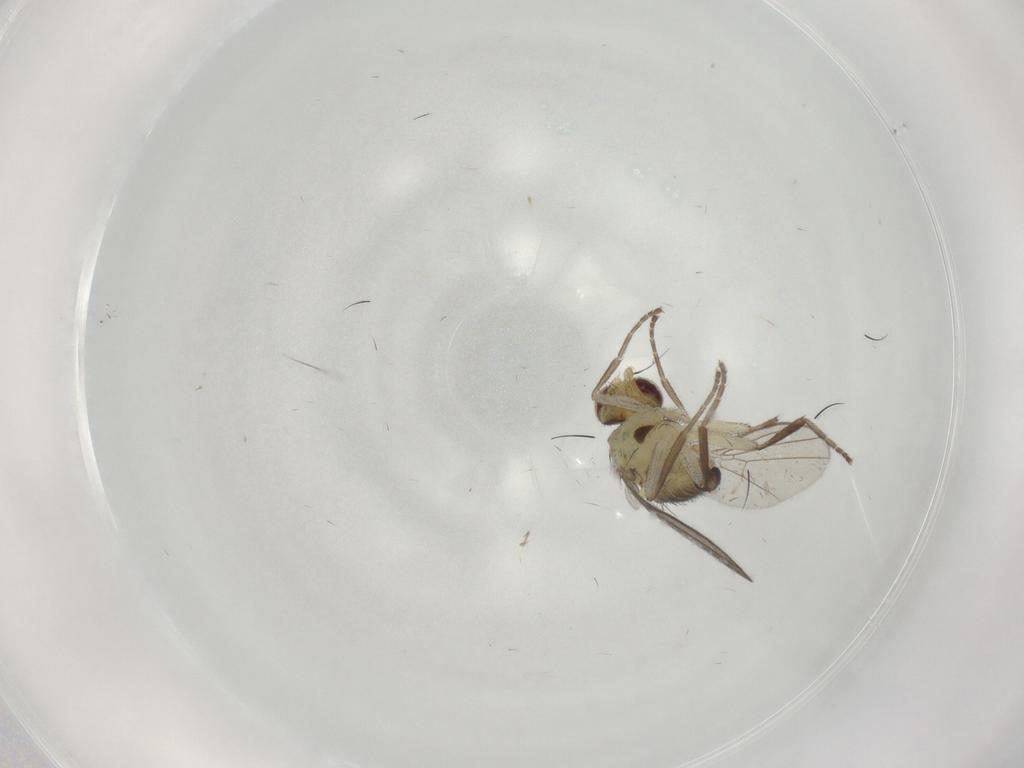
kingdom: Animalia
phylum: Arthropoda
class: Insecta
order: Diptera
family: Agromyzidae
